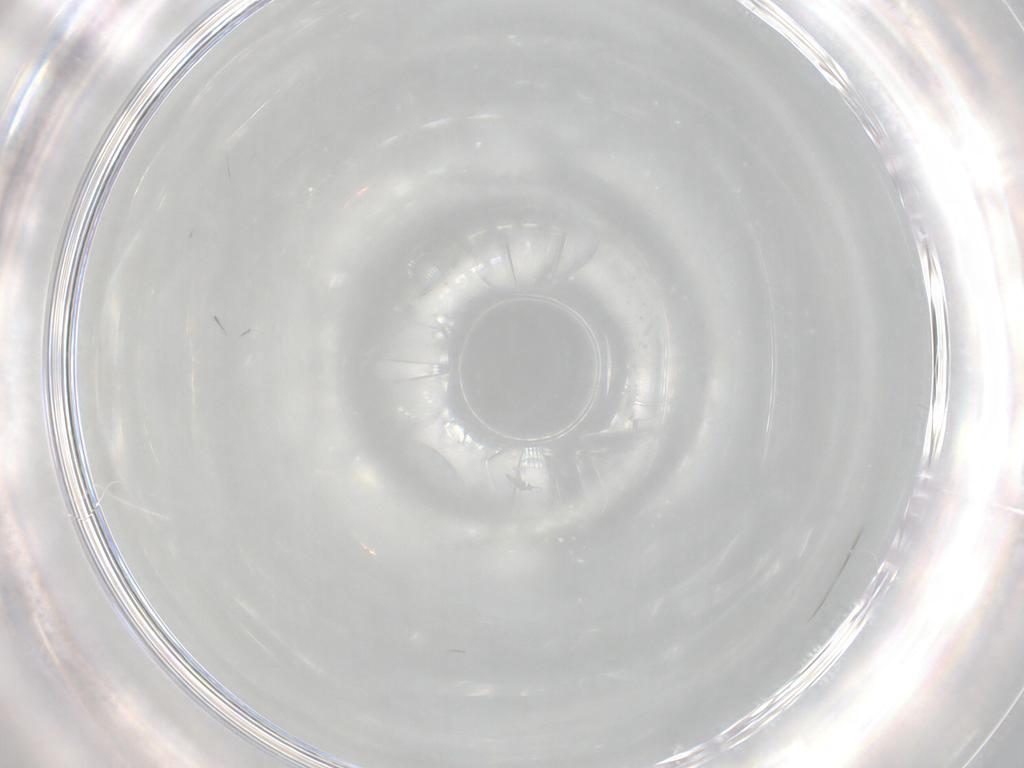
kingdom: Animalia
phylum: Arthropoda
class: Insecta
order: Diptera
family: Cecidomyiidae
